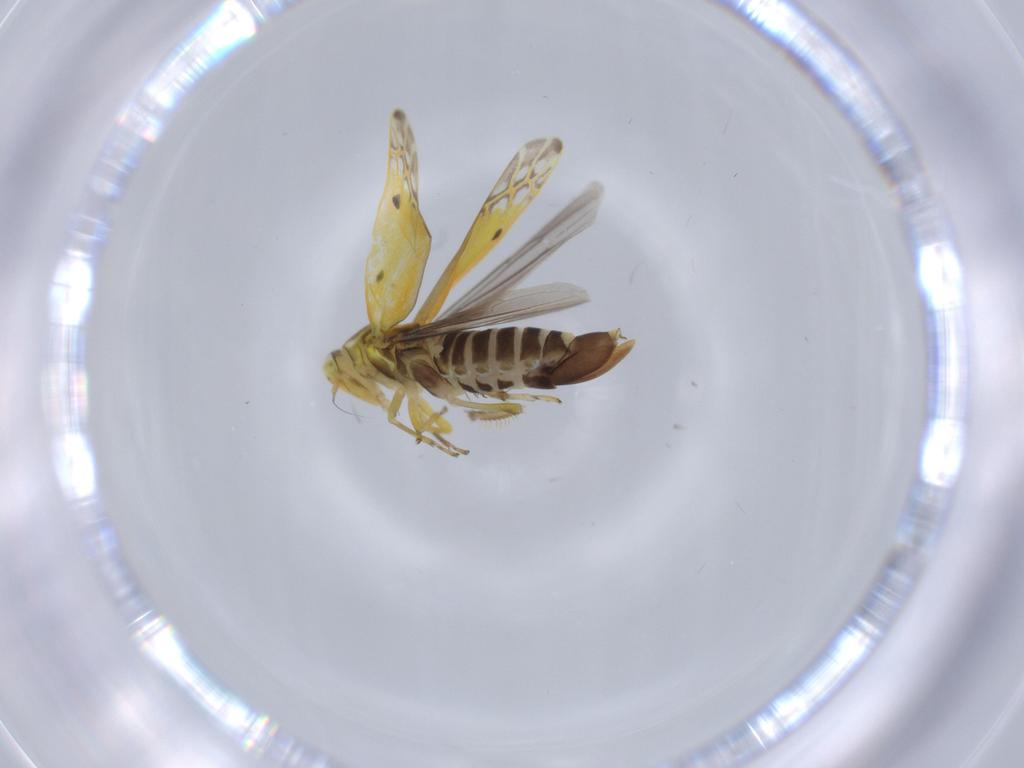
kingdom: Animalia
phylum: Arthropoda
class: Insecta
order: Hemiptera
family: Cicadellidae
